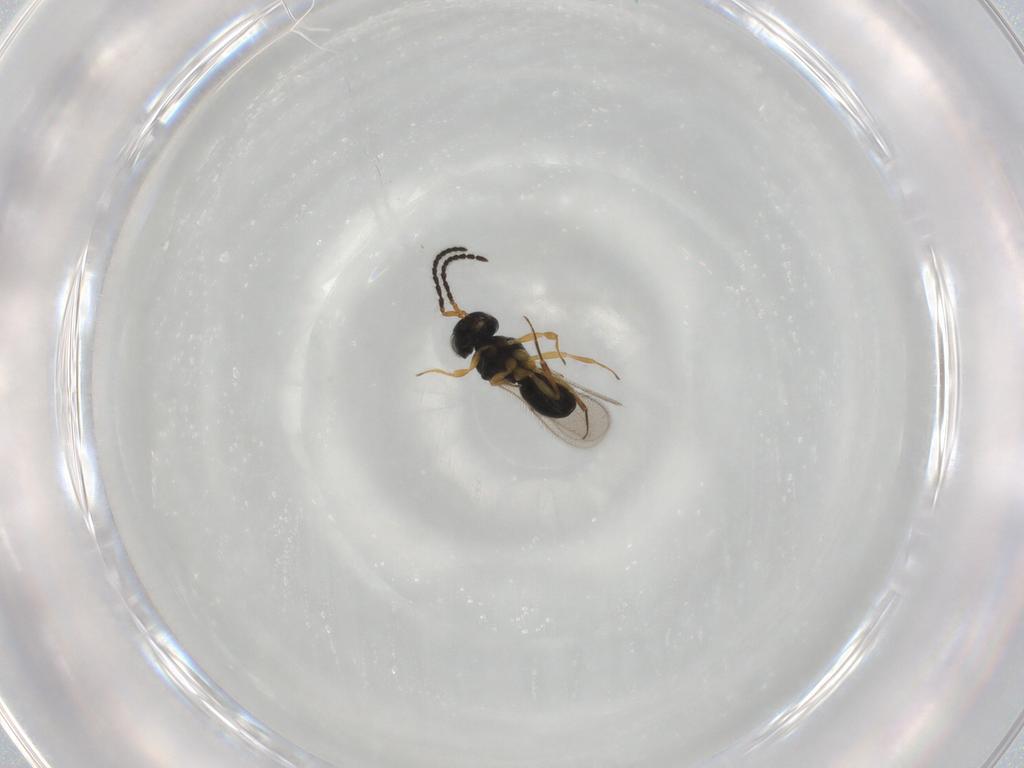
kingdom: Animalia
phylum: Arthropoda
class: Insecta
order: Hymenoptera
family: Scelionidae
